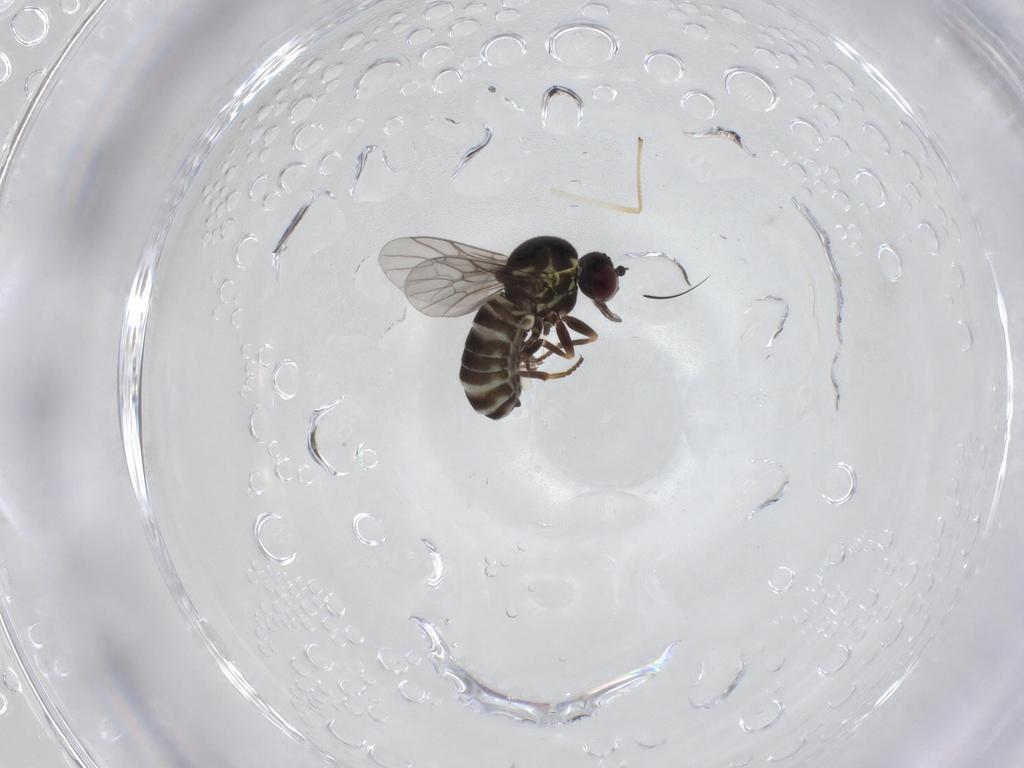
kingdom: Animalia
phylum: Arthropoda
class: Insecta
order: Diptera
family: Bombyliidae
